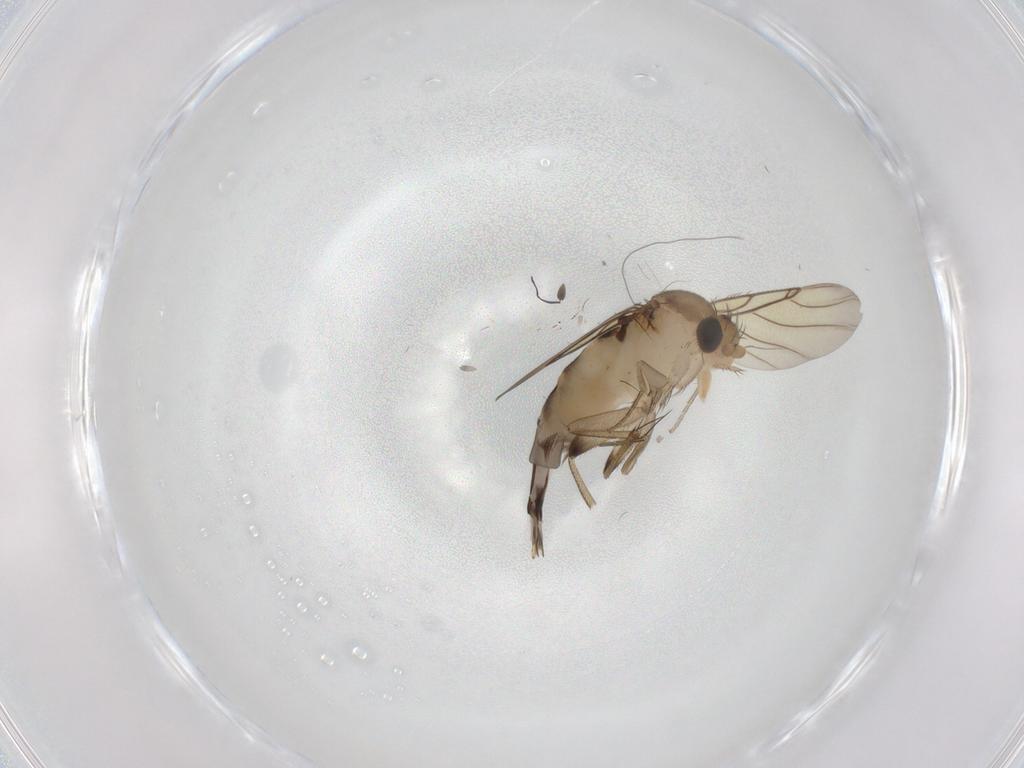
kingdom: Animalia
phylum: Arthropoda
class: Insecta
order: Diptera
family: Phoridae
